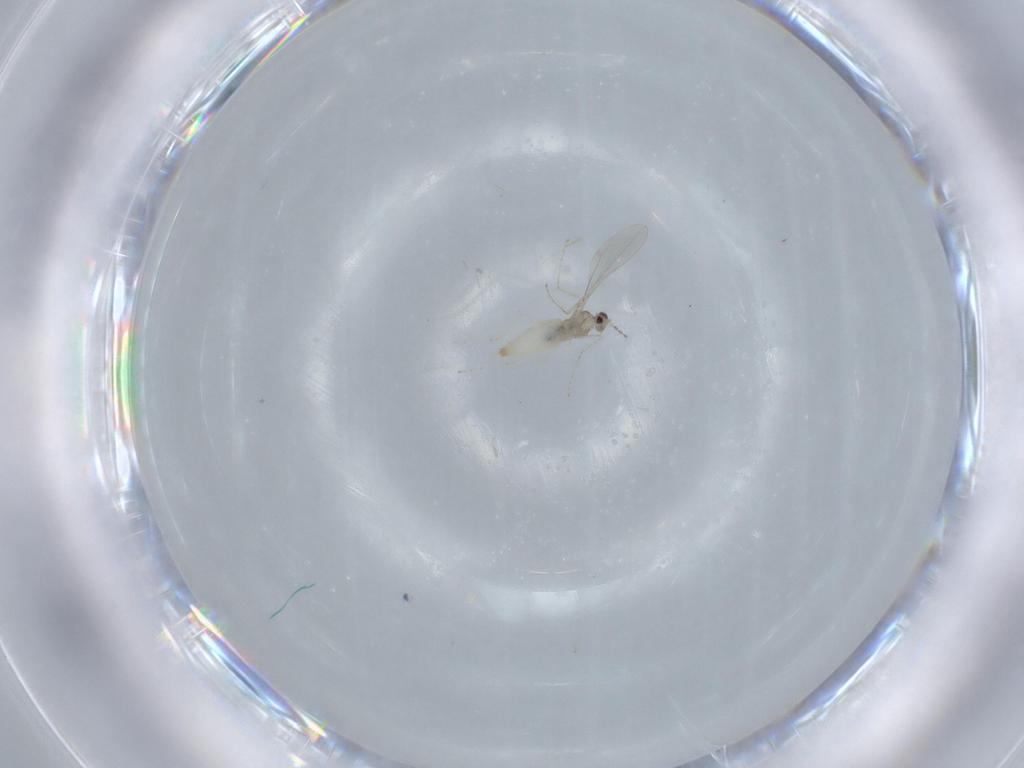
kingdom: Animalia
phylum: Arthropoda
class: Insecta
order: Diptera
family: Cecidomyiidae
